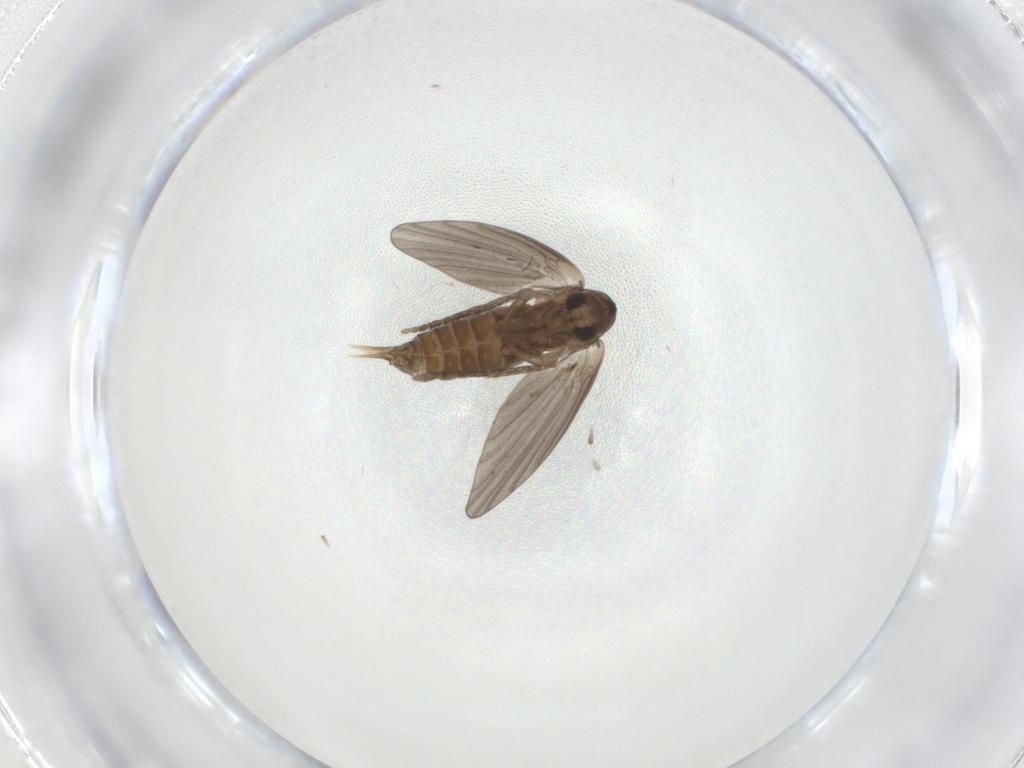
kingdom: Animalia
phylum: Arthropoda
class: Insecta
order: Diptera
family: Psychodidae
